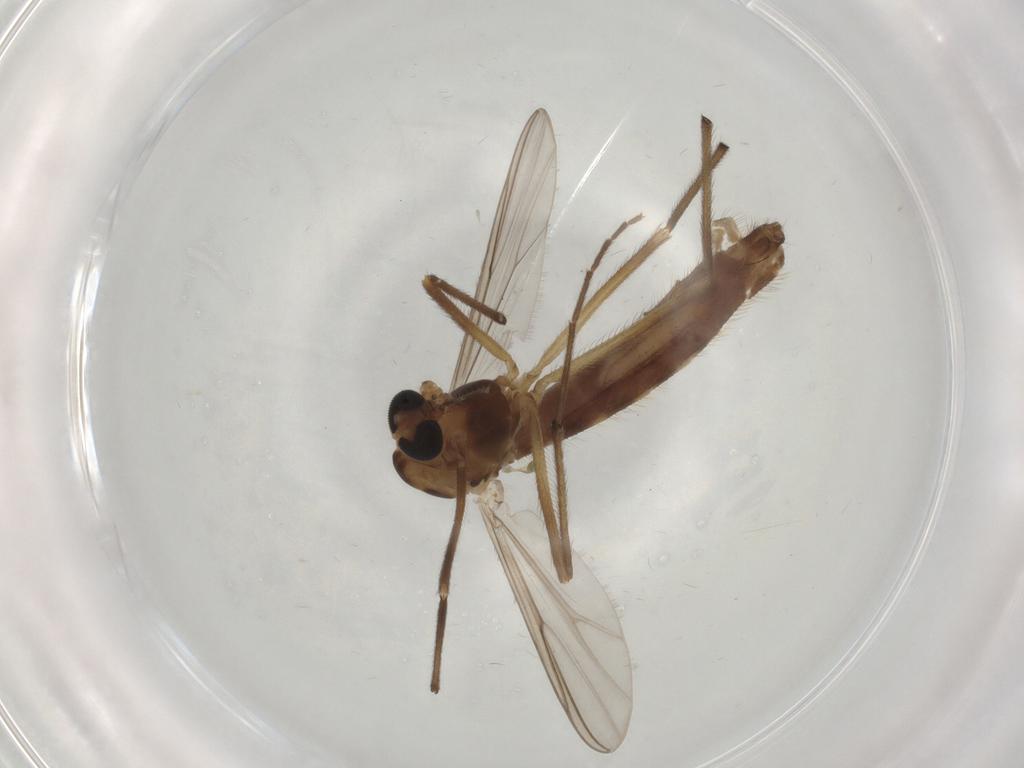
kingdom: Animalia
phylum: Arthropoda
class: Insecta
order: Diptera
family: Chironomidae
